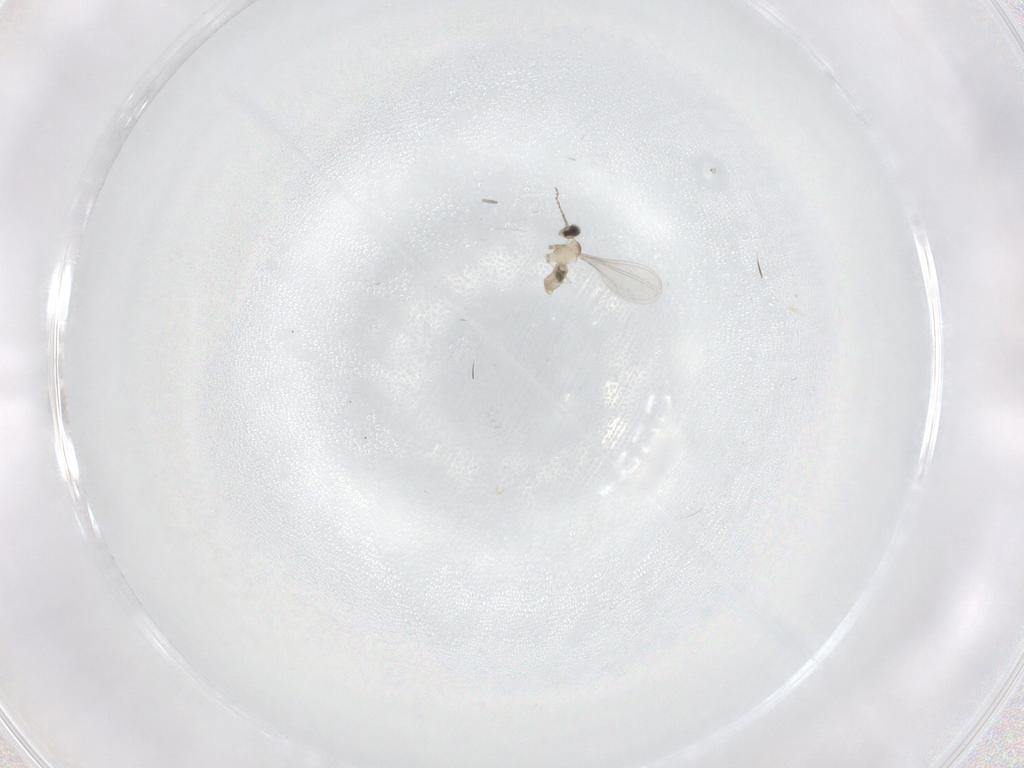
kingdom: Animalia
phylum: Arthropoda
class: Insecta
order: Diptera
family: Cecidomyiidae
